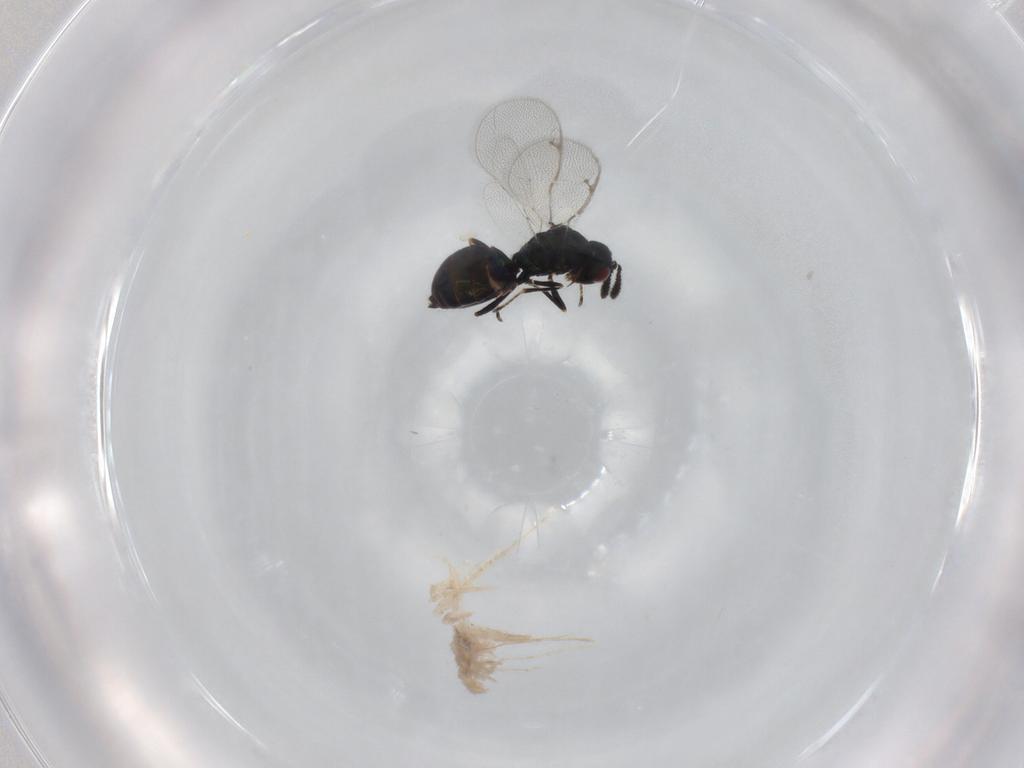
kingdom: Animalia
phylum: Arthropoda
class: Insecta
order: Hymenoptera
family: Pteromalidae
